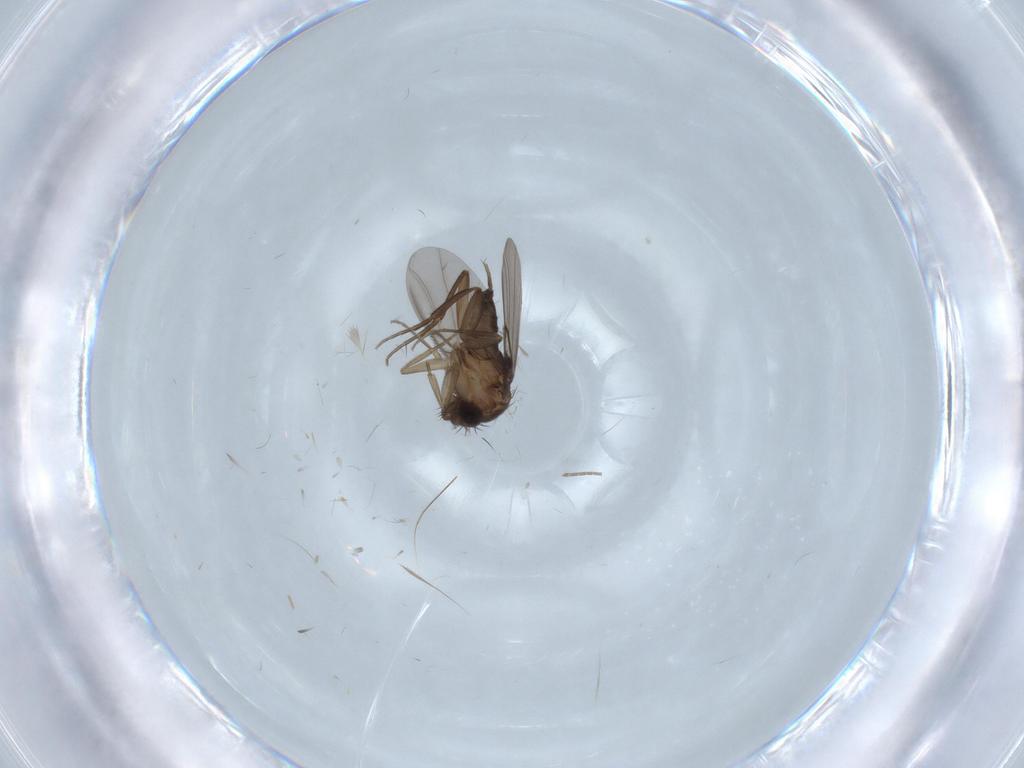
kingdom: Animalia
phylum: Arthropoda
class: Insecta
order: Diptera
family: Phoridae
